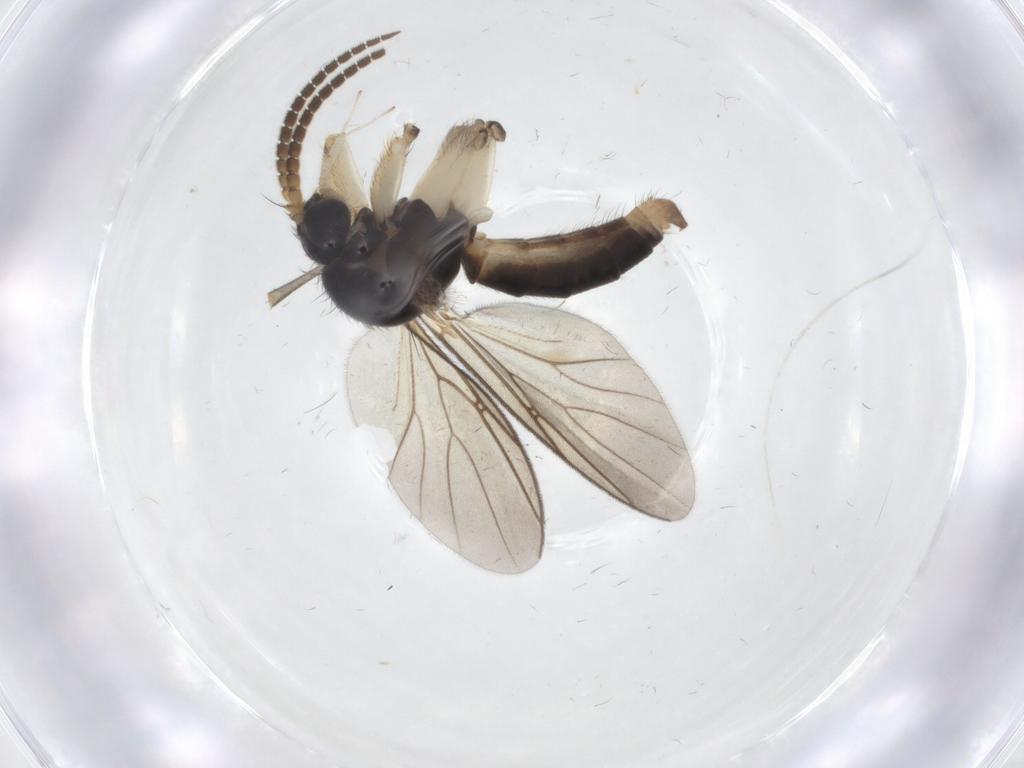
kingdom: Animalia
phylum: Arthropoda
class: Insecta
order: Diptera
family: Sciaridae
